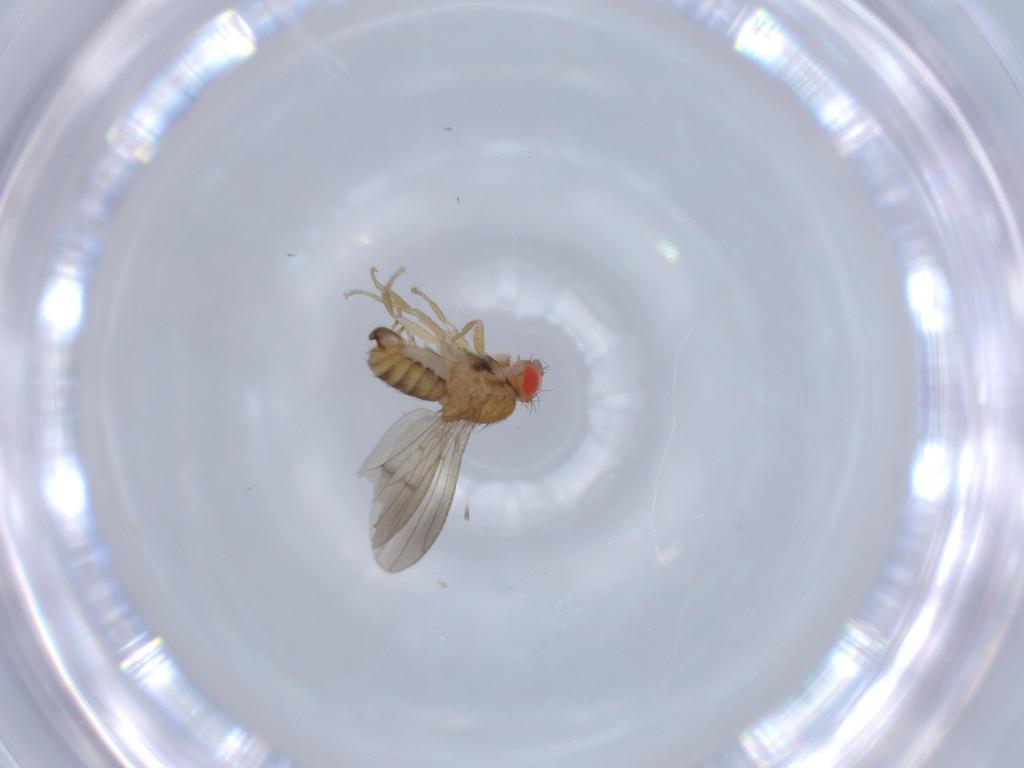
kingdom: Animalia
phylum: Arthropoda
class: Insecta
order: Diptera
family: Drosophilidae
